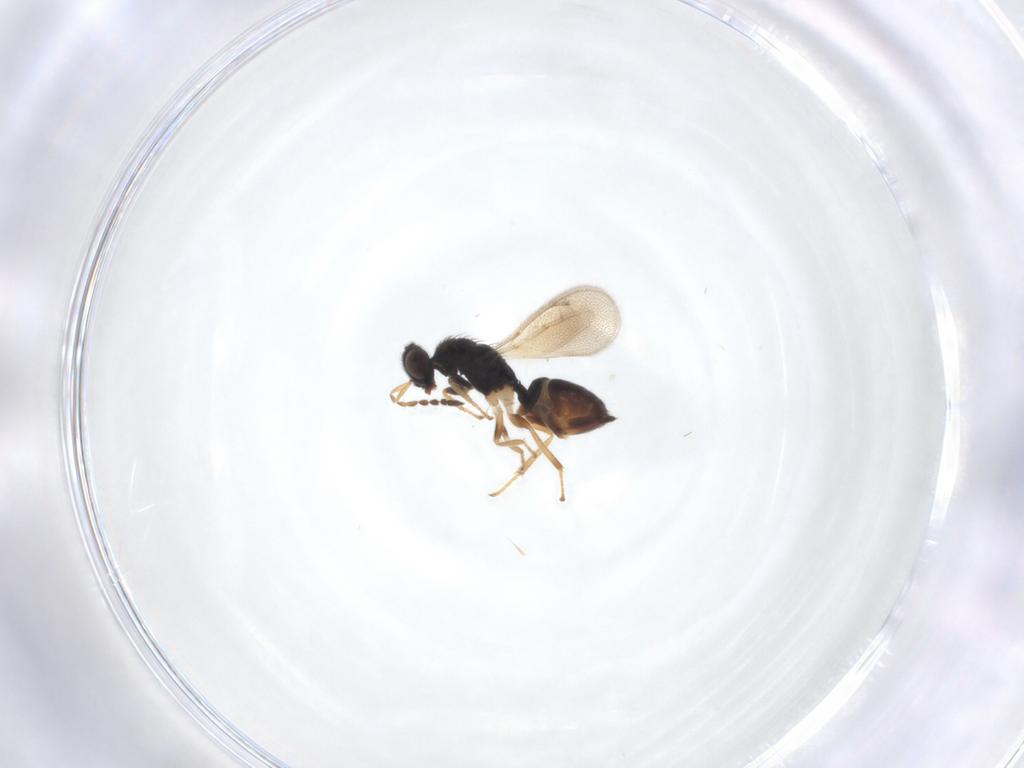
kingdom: Animalia
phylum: Arthropoda
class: Insecta
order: Hymenoptera
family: Eulophidae
